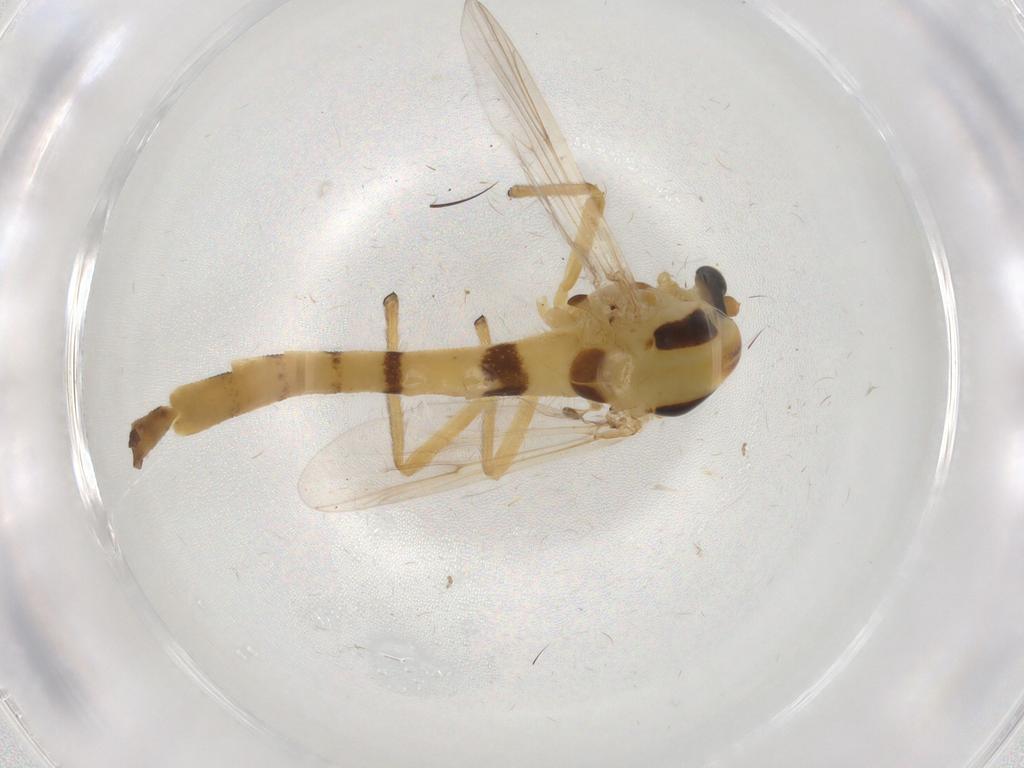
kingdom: Animalia
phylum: Arthropoda
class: Insecta
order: Diptera
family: Chironomidae
